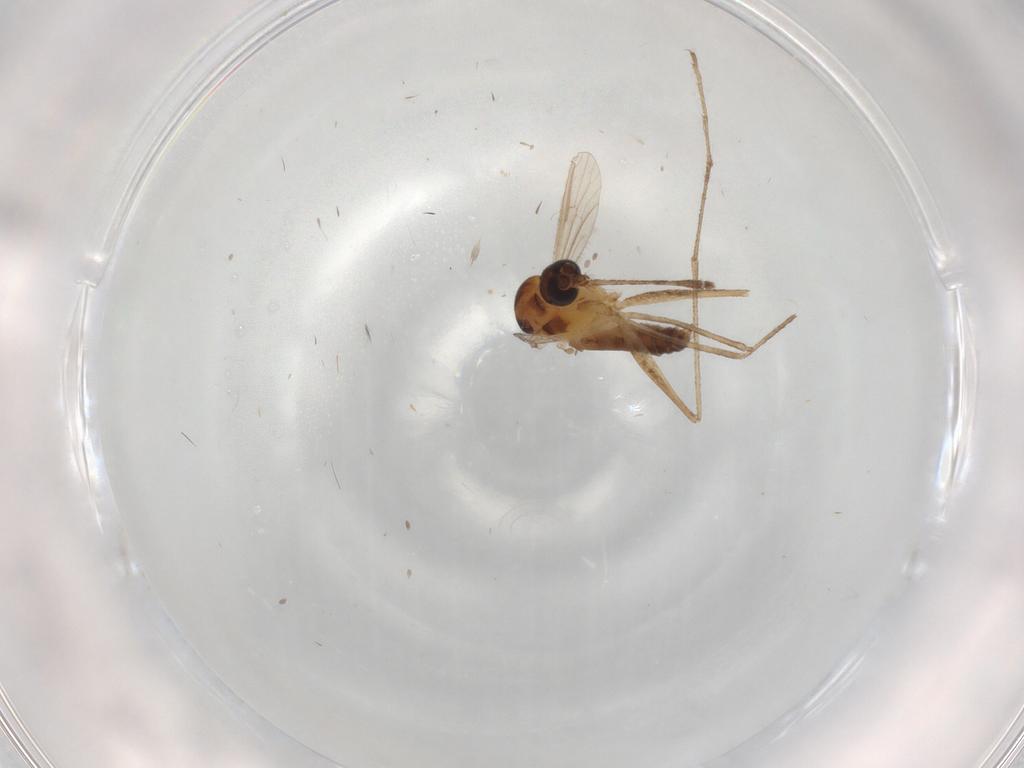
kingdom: Animalia
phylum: Arthropoda
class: Insecta
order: Diptera
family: Dolichopodidae
